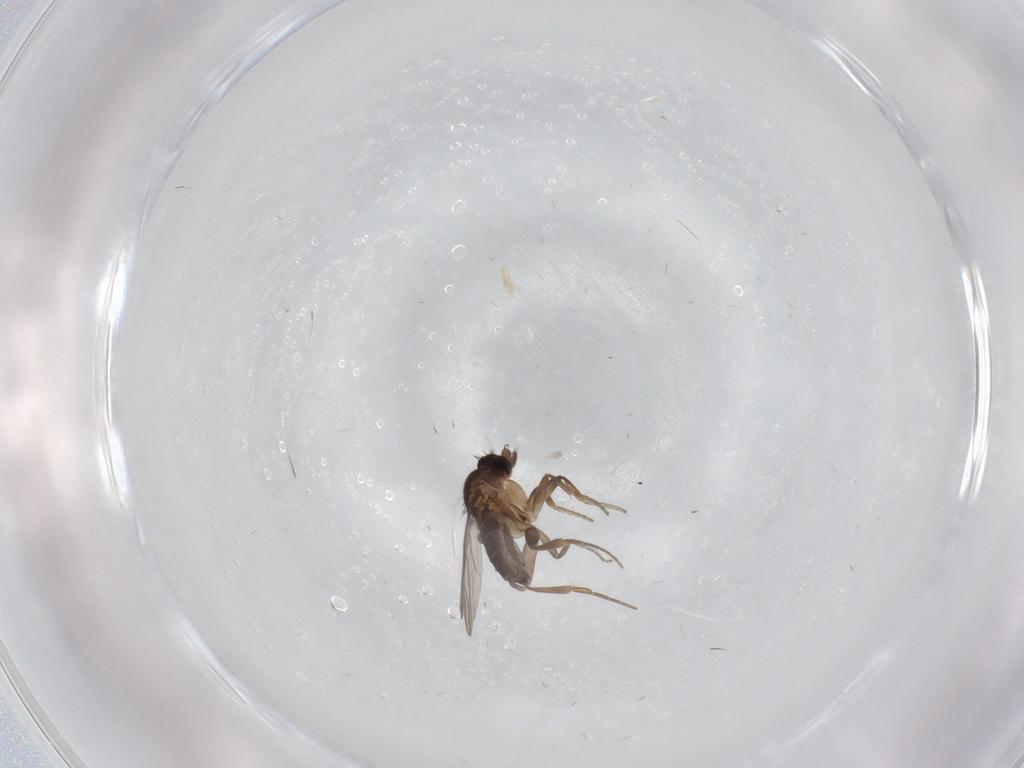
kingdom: Animalia
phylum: Arthropoda
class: Insecta
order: Diptera
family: Phoridae
